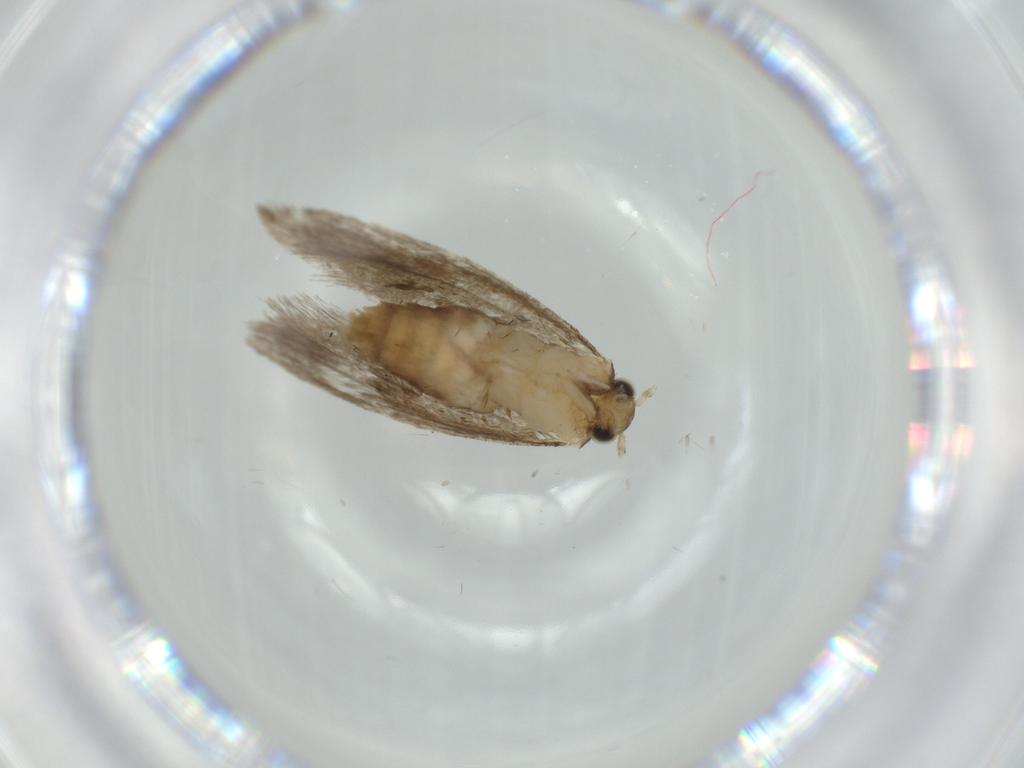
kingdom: Animalia
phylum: Arthropoda
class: Insecta
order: Lepidoptera
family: Tineidae
